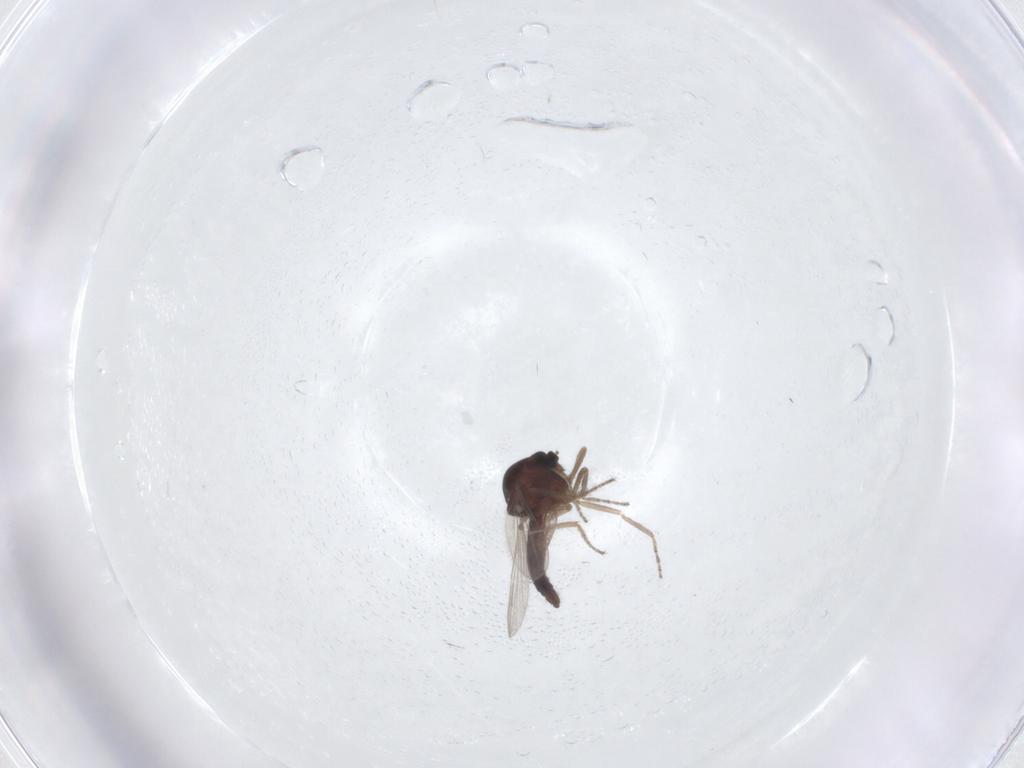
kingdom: Animalia
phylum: Arthropoda
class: Insecta
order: Diptera
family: Ceratopogonidae
